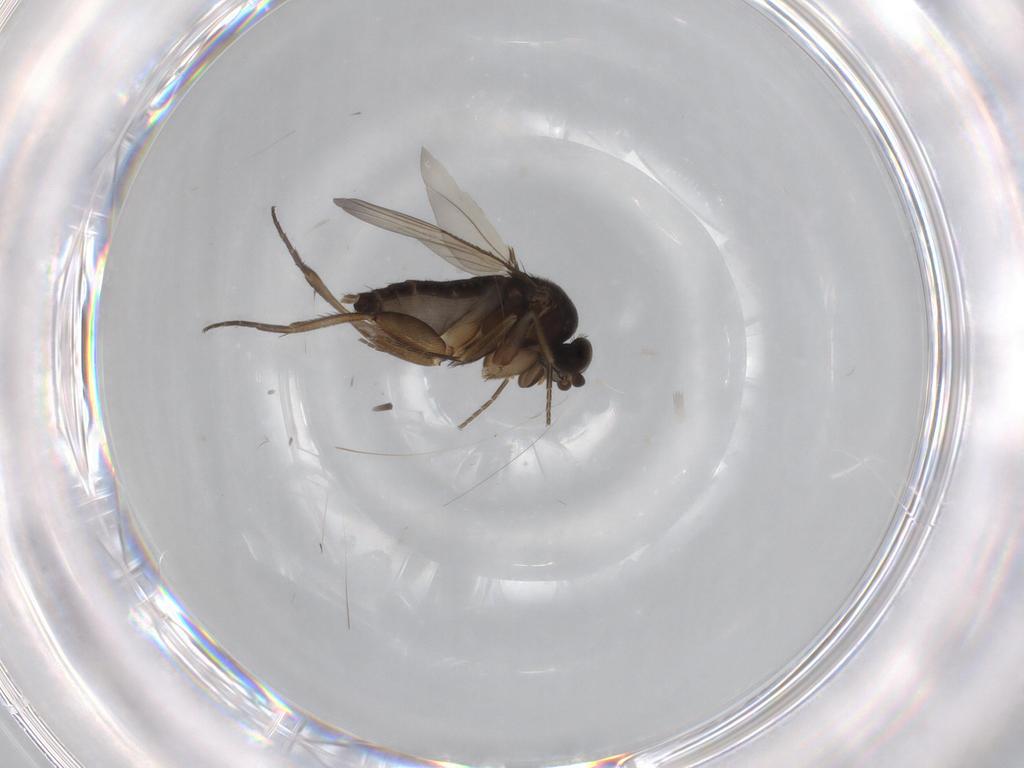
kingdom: Animalia
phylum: Arthropoda
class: Insecta
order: Diptera
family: Phoridae
